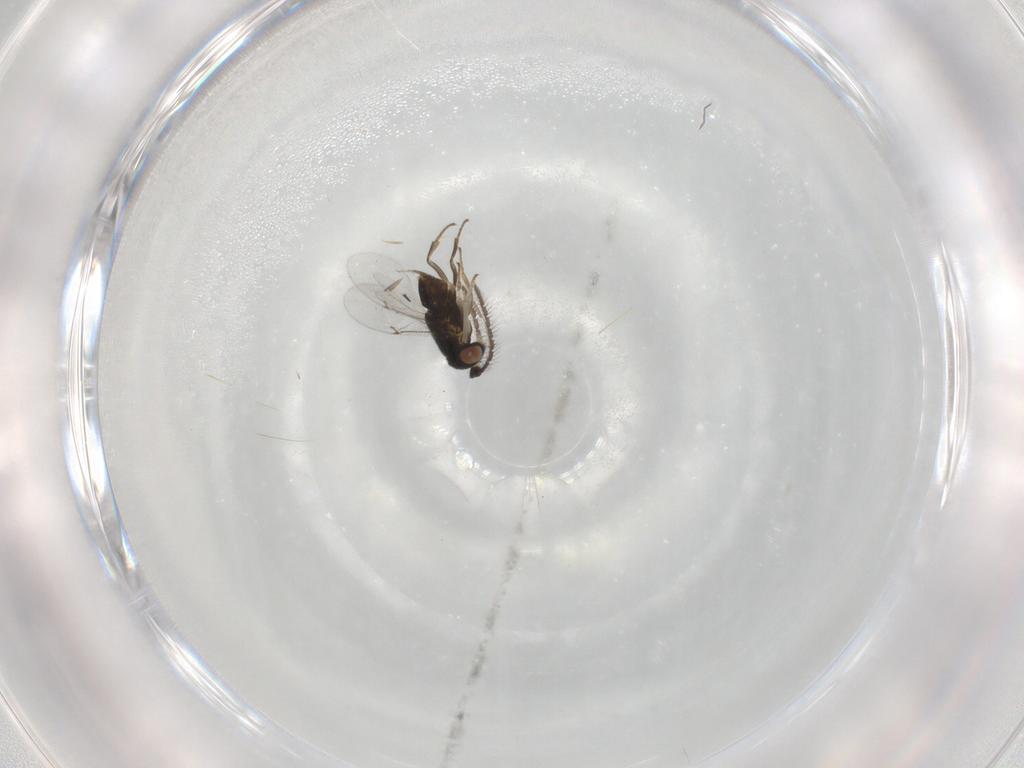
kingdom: Animalia
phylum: Arthropoda
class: Insecta
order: Hymenoptera
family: Encyrtidae
